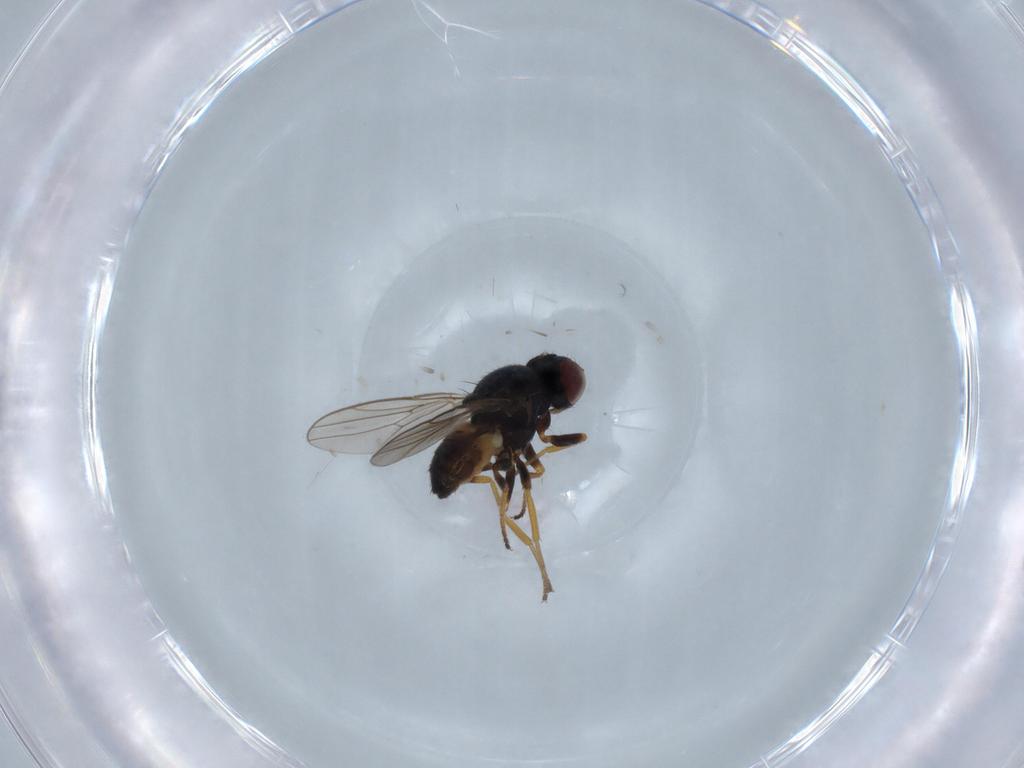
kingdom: Animalia
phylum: Arthropoda
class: Insecta
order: Diptera
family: Chloropidae
